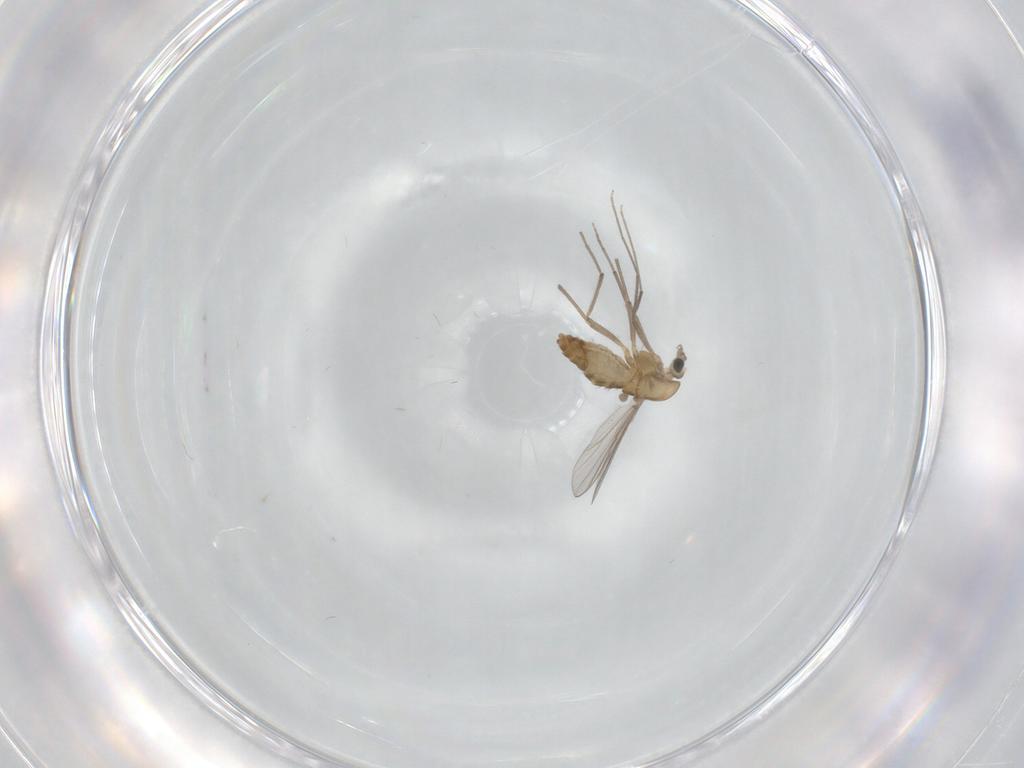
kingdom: Animalia
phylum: Arthropoda
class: Insecta
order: Diptera
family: Chironomidae
